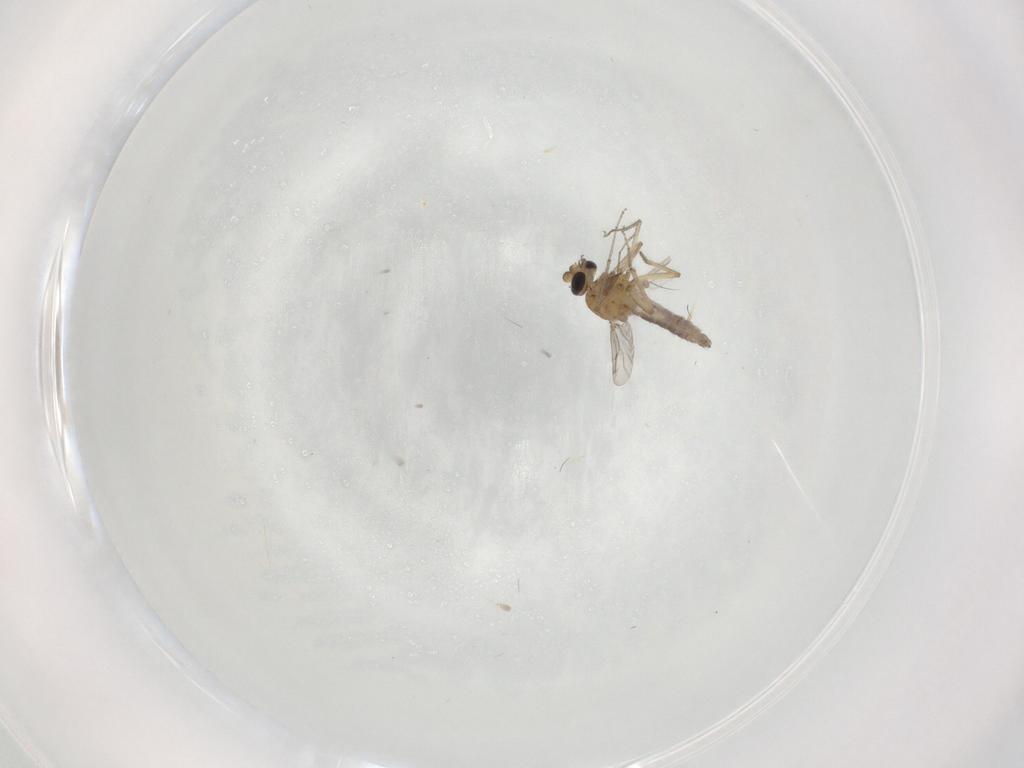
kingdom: Animalia
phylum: Arthropoda
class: Insecta
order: Diptera
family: Ceratopogonidae
